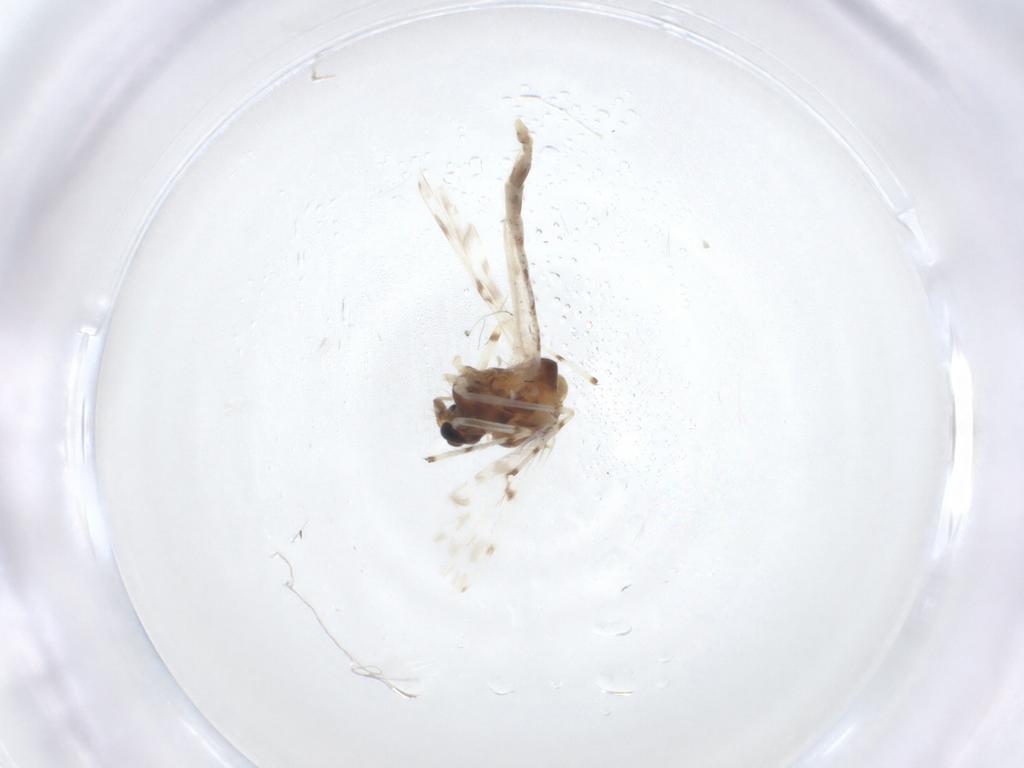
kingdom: Animalia
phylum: Arthropoda
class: Insecta
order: Diptera
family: Chironomidae
